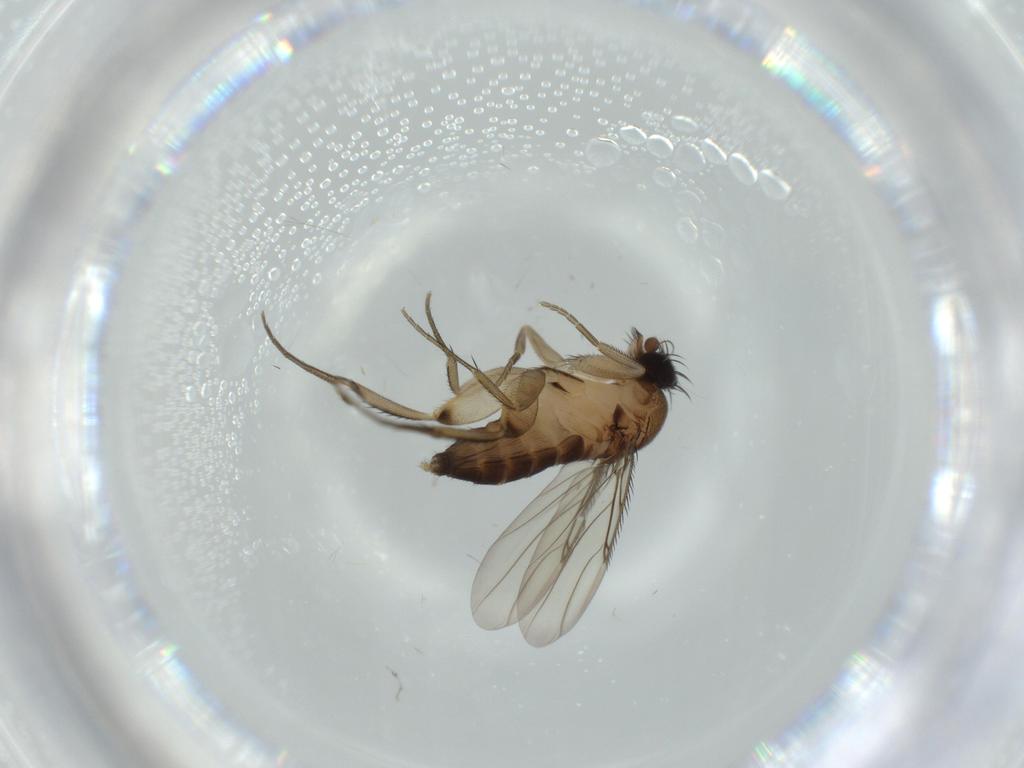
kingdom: Animalia
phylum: Arthropoda
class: Insecta
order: Diptera
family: Phoridae
